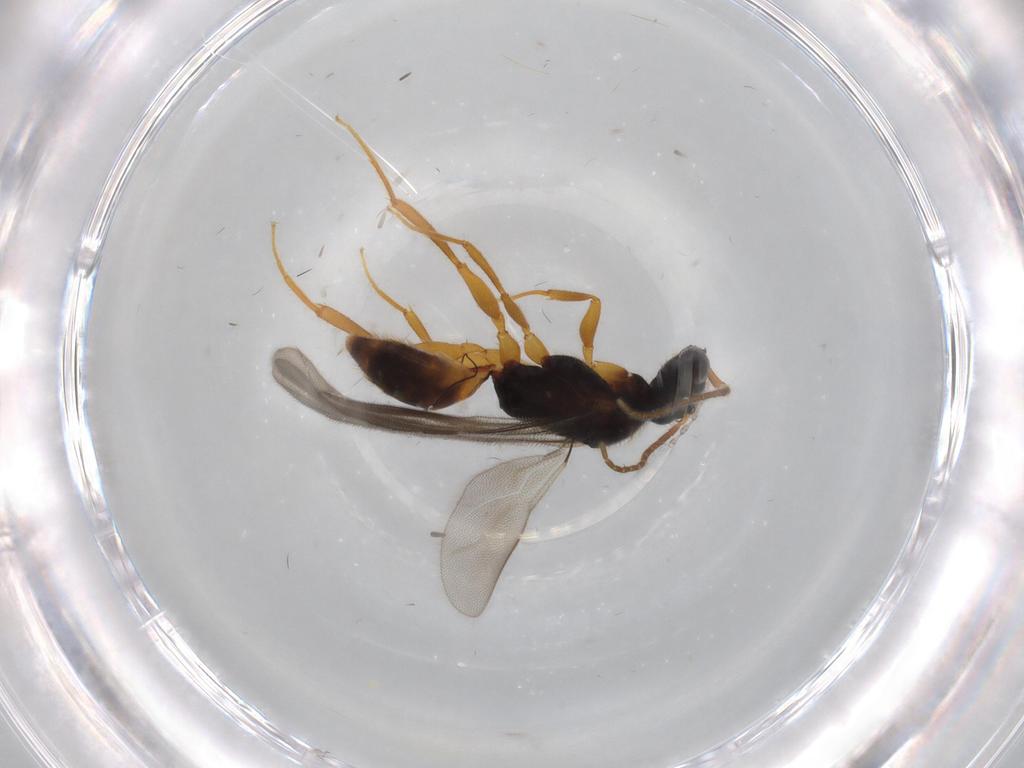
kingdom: Animalia
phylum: Arthropoda
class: Insecta
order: Hymenoptera
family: Bethylidae
